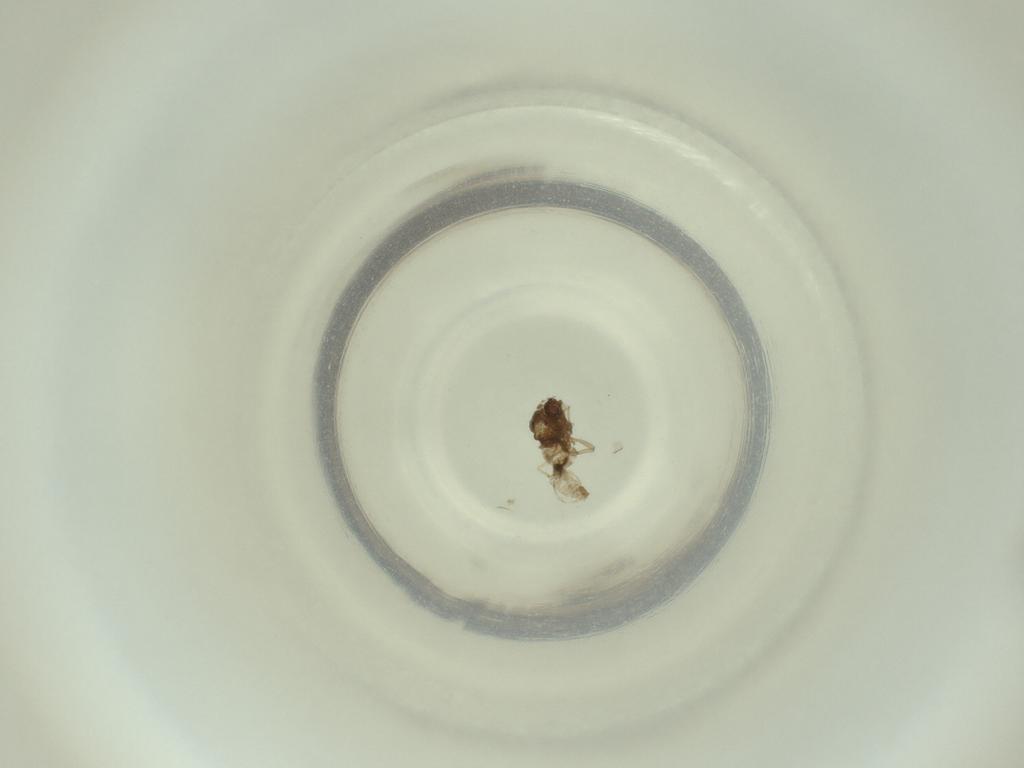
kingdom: Animalia
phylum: Arthropoda
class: Insecta
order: Diptera
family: Cecidomyiidae
